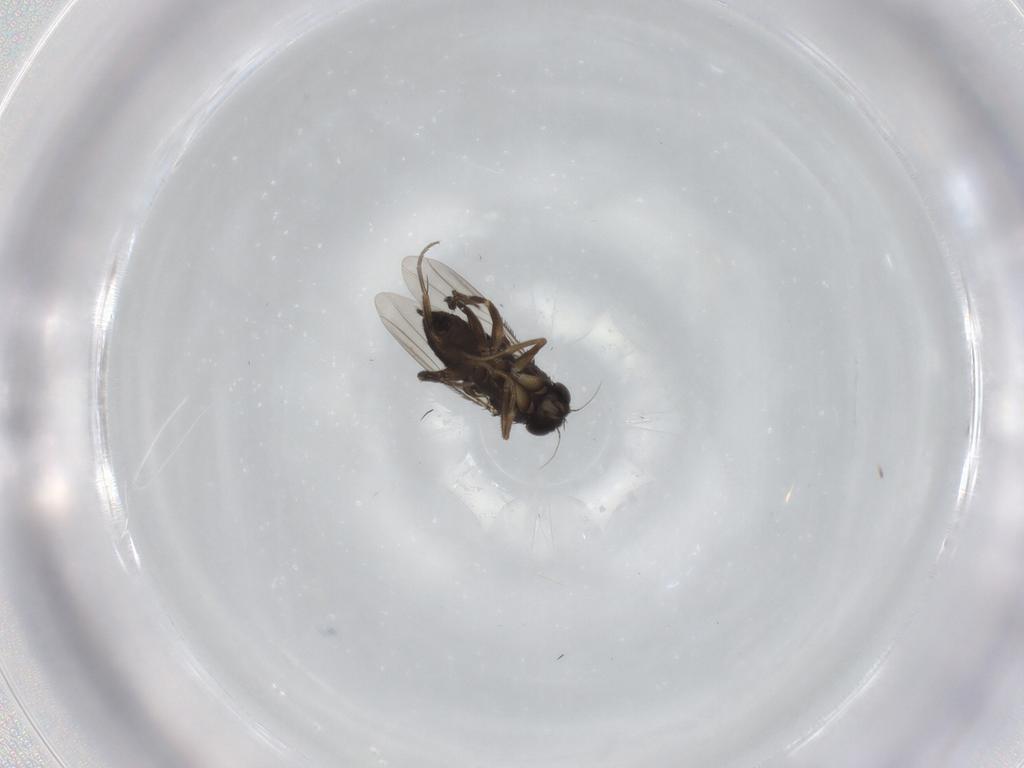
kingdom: Animalia
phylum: Arthropoda
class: Insecta
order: Diptera
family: Phoridae
